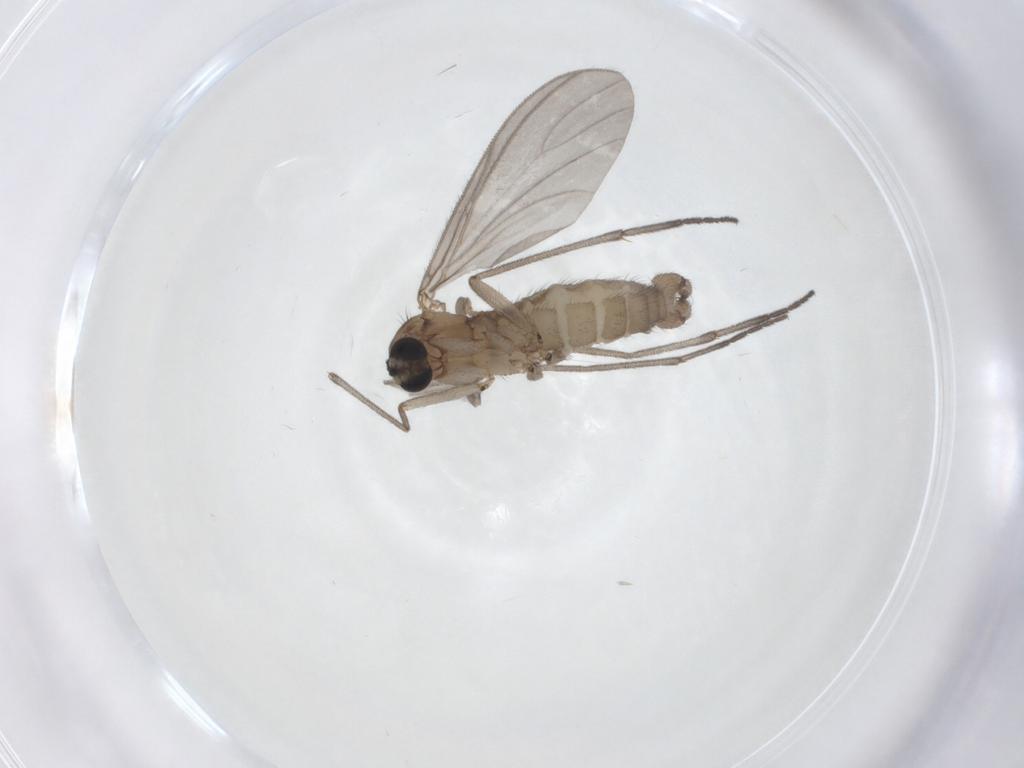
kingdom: Animalia
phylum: Arthropoda
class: Insecta
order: Diptera
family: Sciaridae
